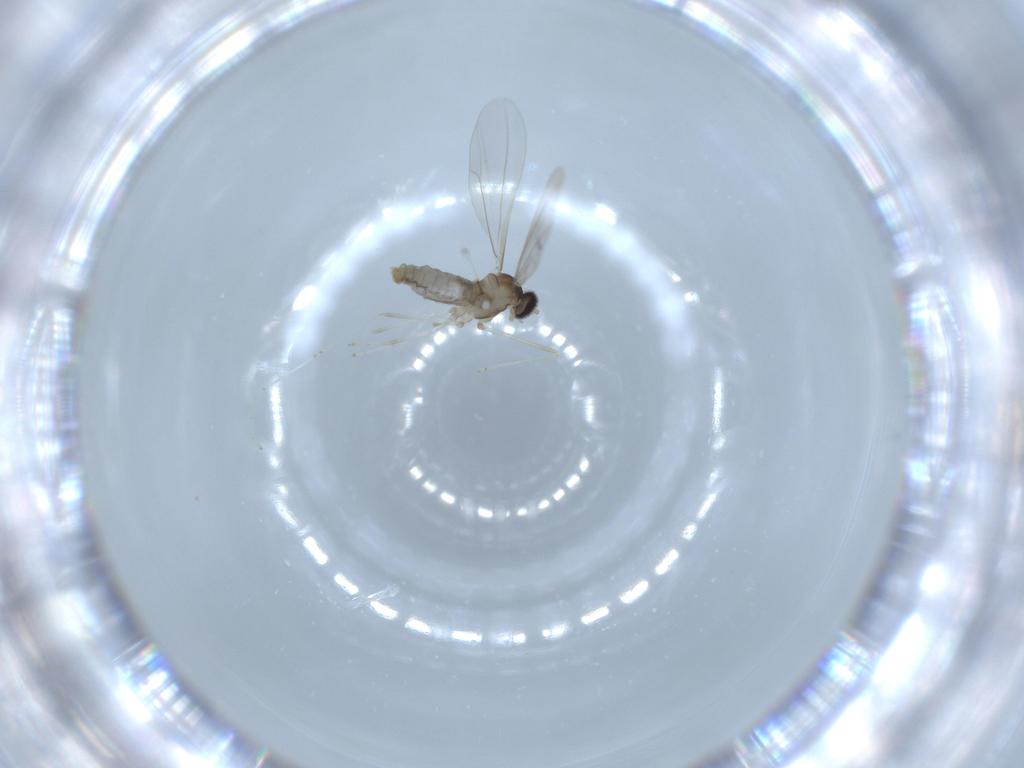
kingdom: Animalia
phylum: Arthropoda
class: Insecta
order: Diptera
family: Cecidomyiidae
